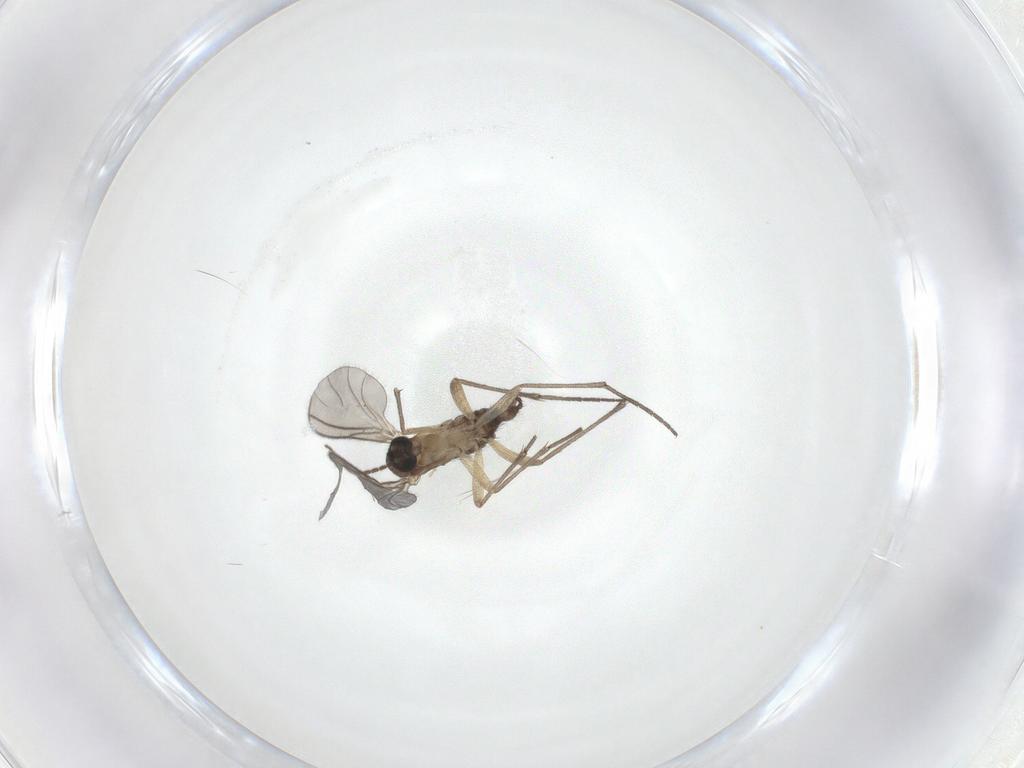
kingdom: Animalia
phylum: Arthropoda
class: Insecta
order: Diptera
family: Sciaridae
